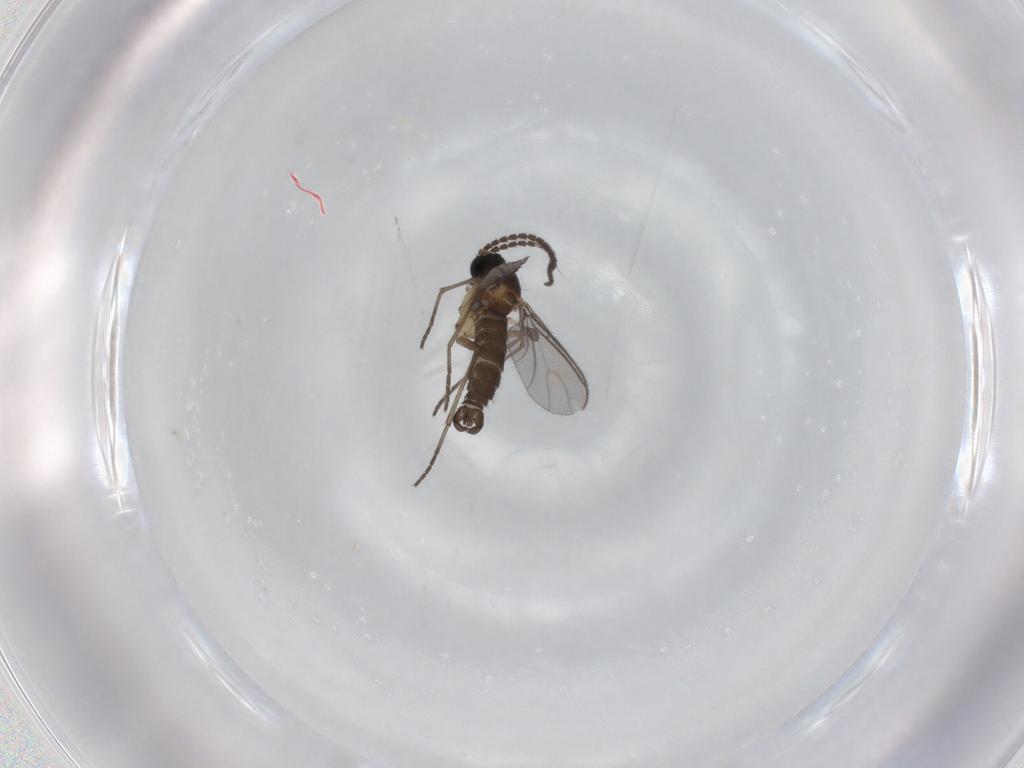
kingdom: Animalia
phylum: Arthropoda
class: Insecta
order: Diptera
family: Sciaridae
